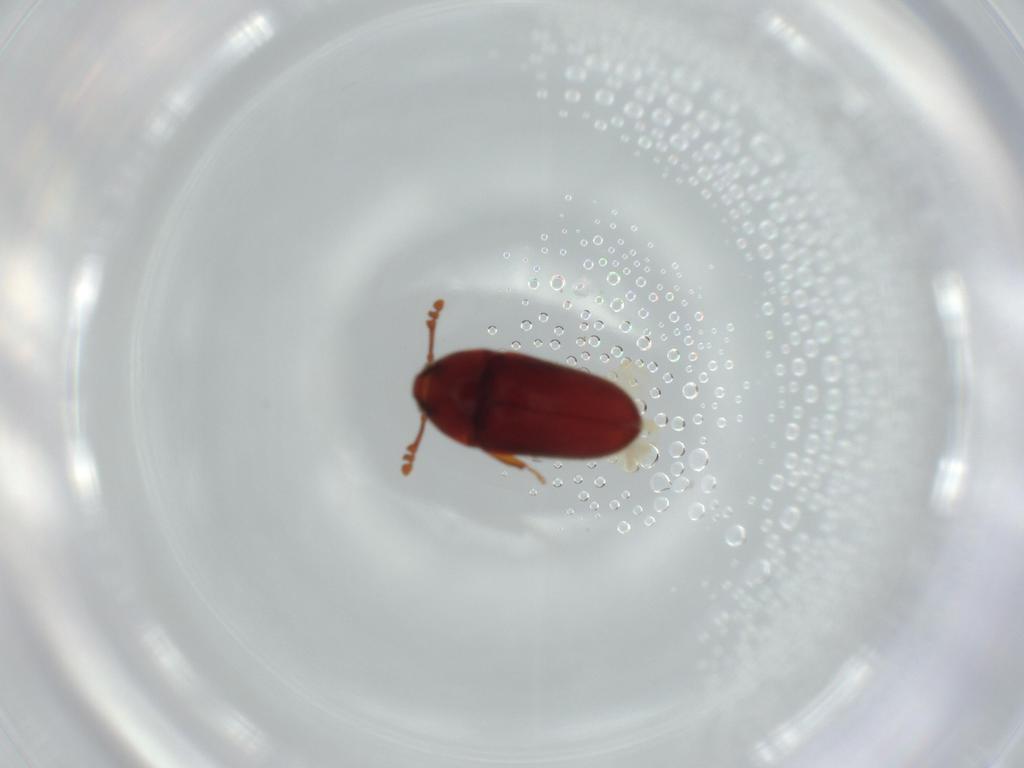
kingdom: Animalia
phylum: Arthropoda
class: Insecta
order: Coleoptera
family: Throscidae
